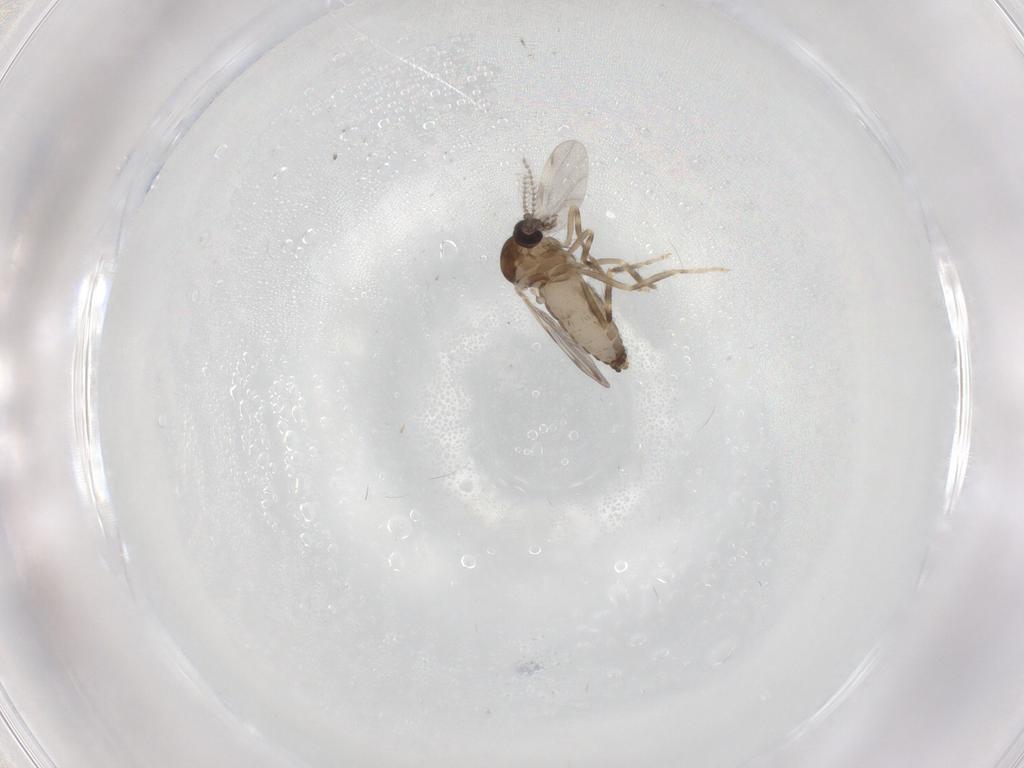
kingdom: Animalia
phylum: Arthropoda
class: Insecta
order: Diptera
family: Ceratopogonidae
